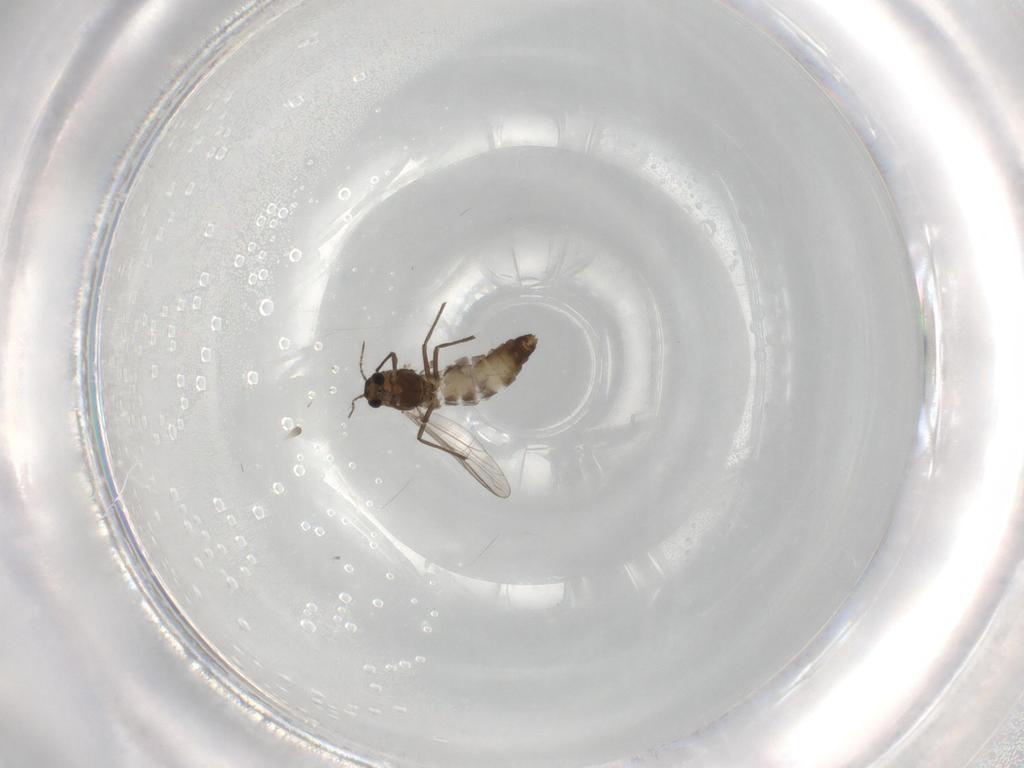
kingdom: Animalia
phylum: Arthropoda
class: Insecta
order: Diptera
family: Chironomidae
